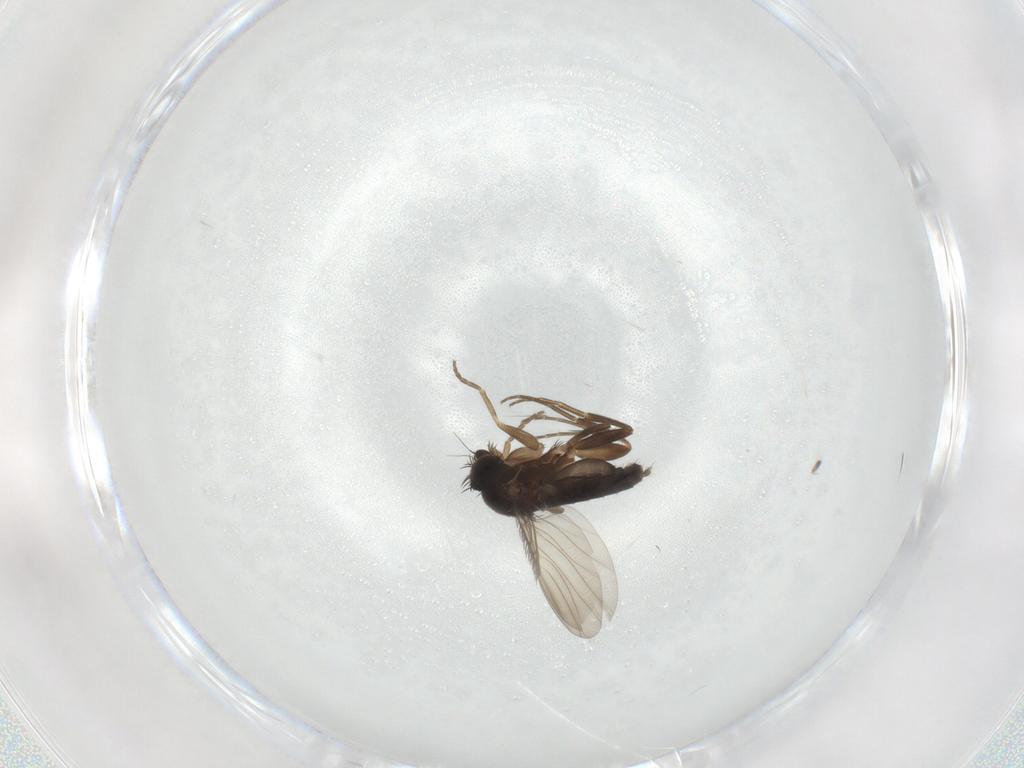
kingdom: Animalia
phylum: Arthropoda
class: Insecta
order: Diptera
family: Phoridae
